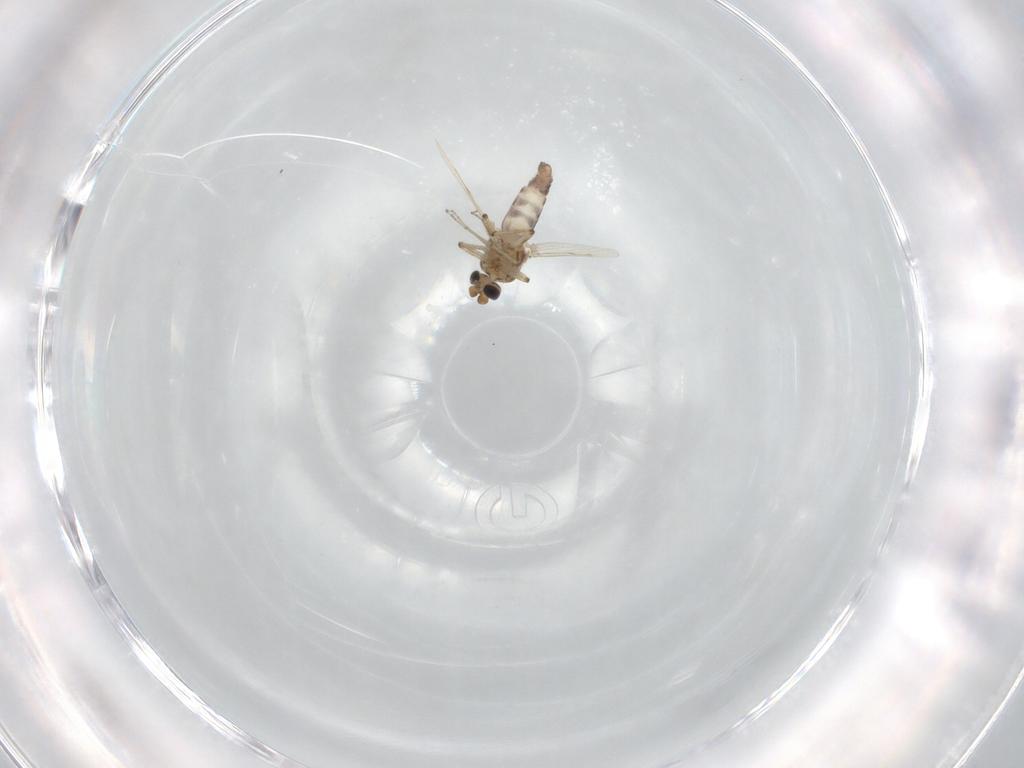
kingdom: Animalia
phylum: Arthropoda
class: Insecta
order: Diptera
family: Ceratopogonidae
